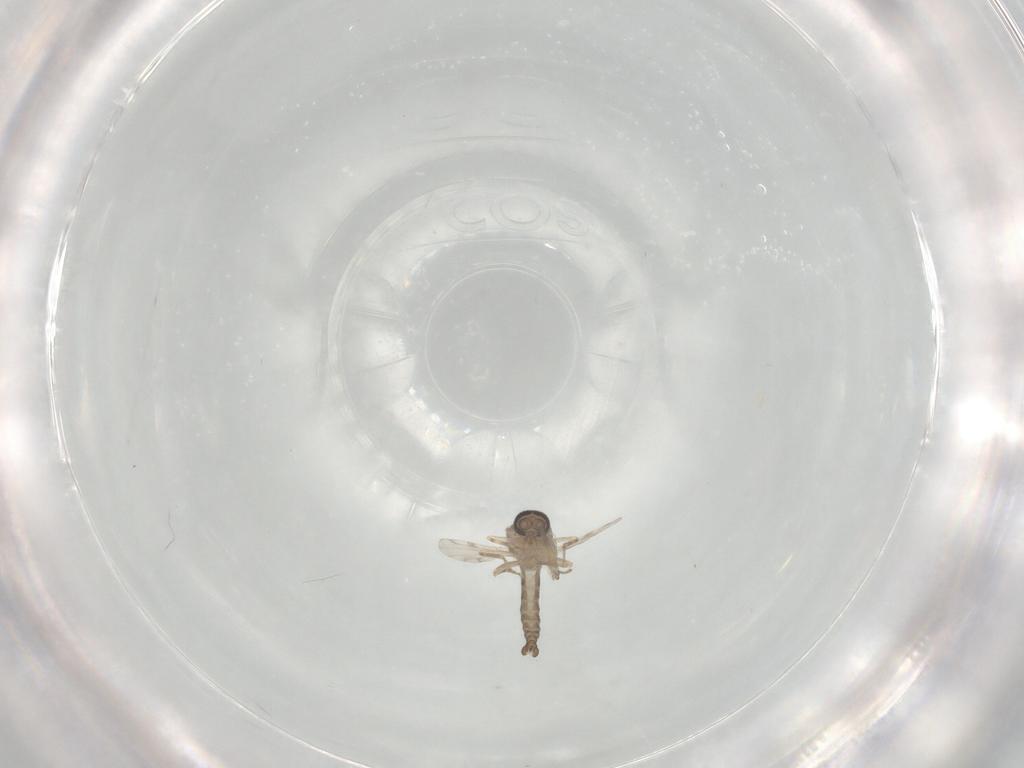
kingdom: Animalia
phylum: Arthropoda
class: Insecta
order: Diptera
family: Ceratopogonidae
